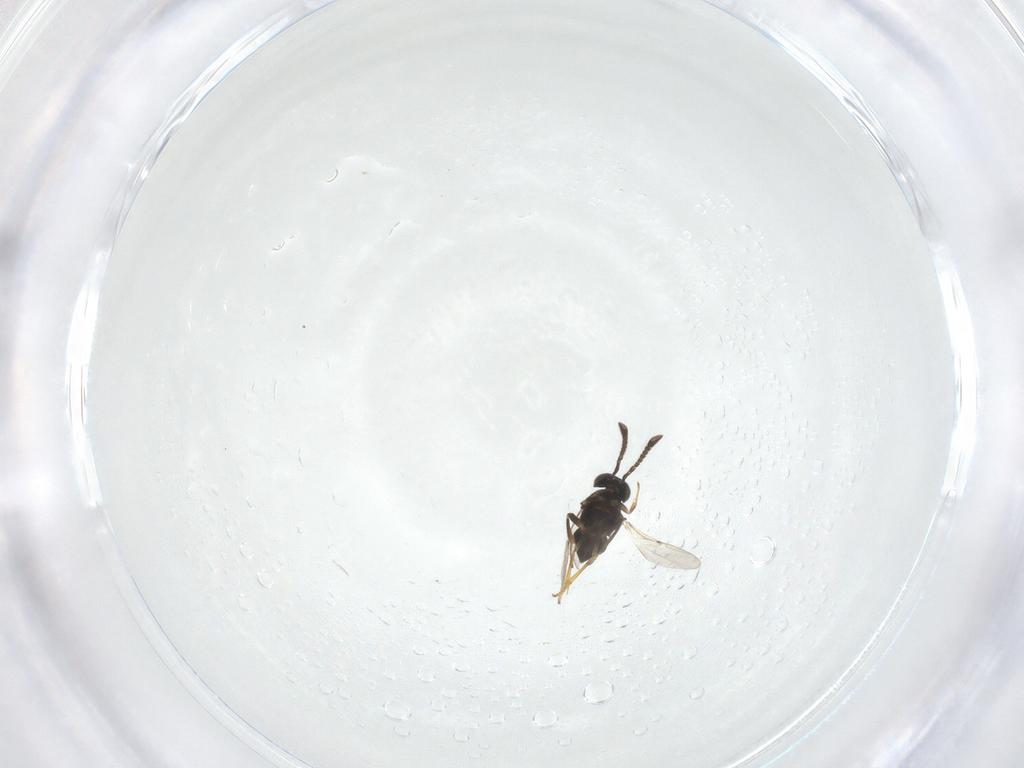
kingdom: Animalia
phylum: Arthropoda
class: Insecta
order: Hymenoptera
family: Encyrtidae
